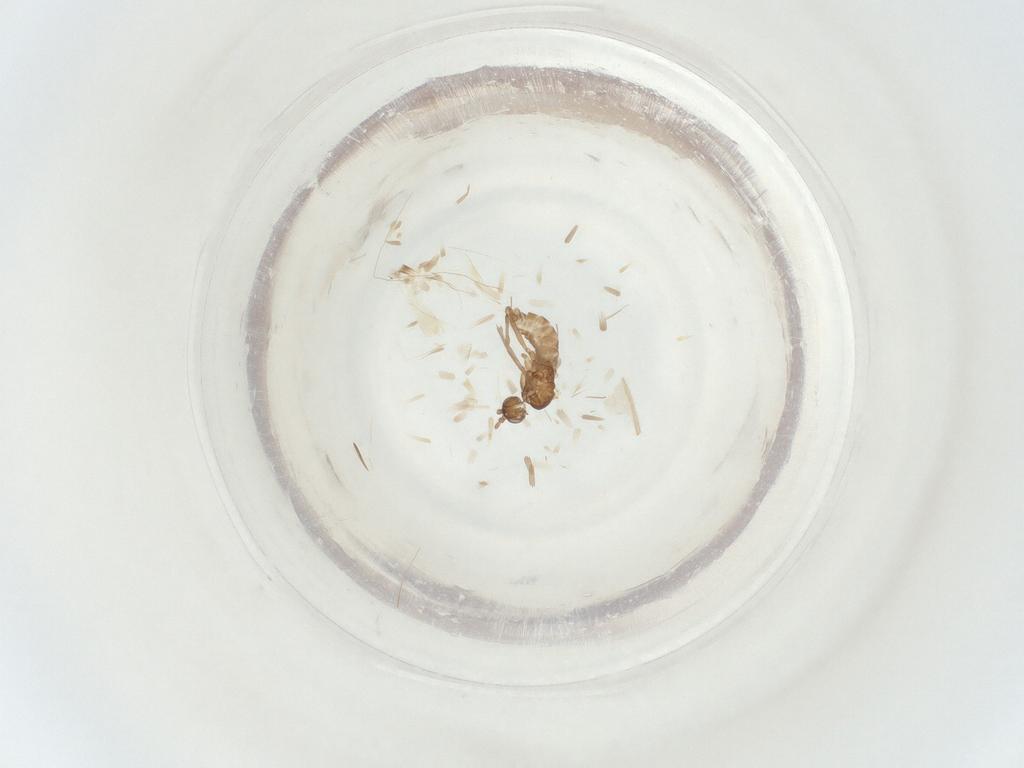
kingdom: Animalia
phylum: Arthropoda
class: Insecta
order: Diptera
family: Sciaridae
